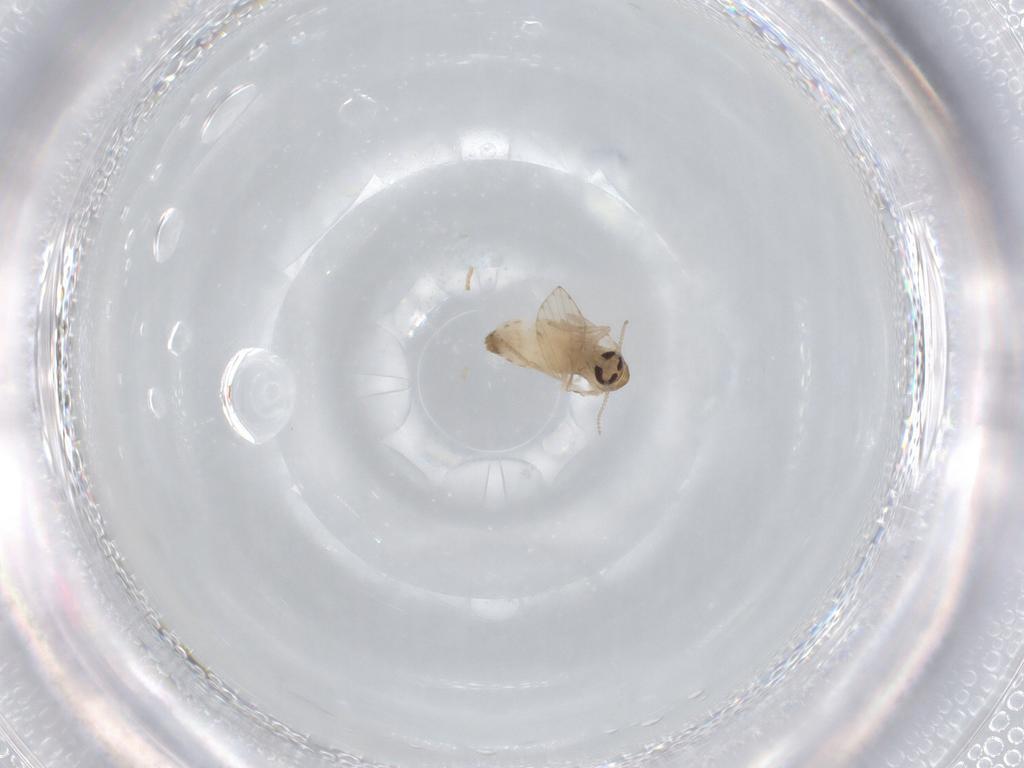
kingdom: Animalia
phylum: Arthropoda
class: Insecta
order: Diptera
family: Psychodidae
